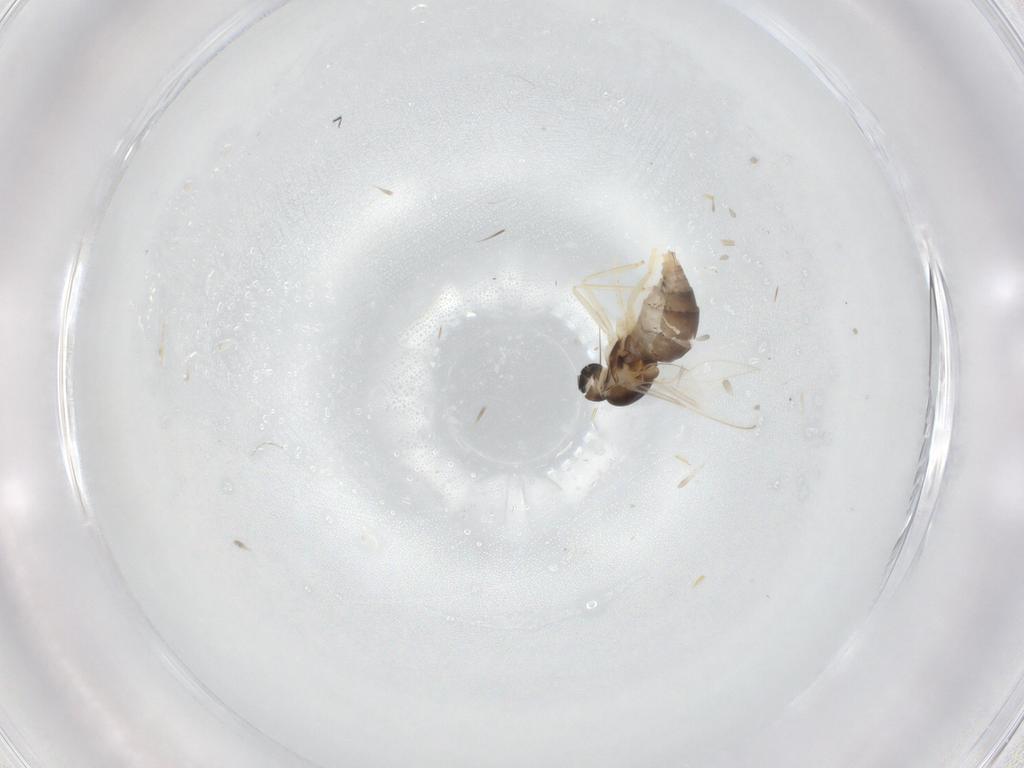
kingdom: Animalia
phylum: Arthropoda
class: Insecta
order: Diptera
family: Cecidomyiidae
